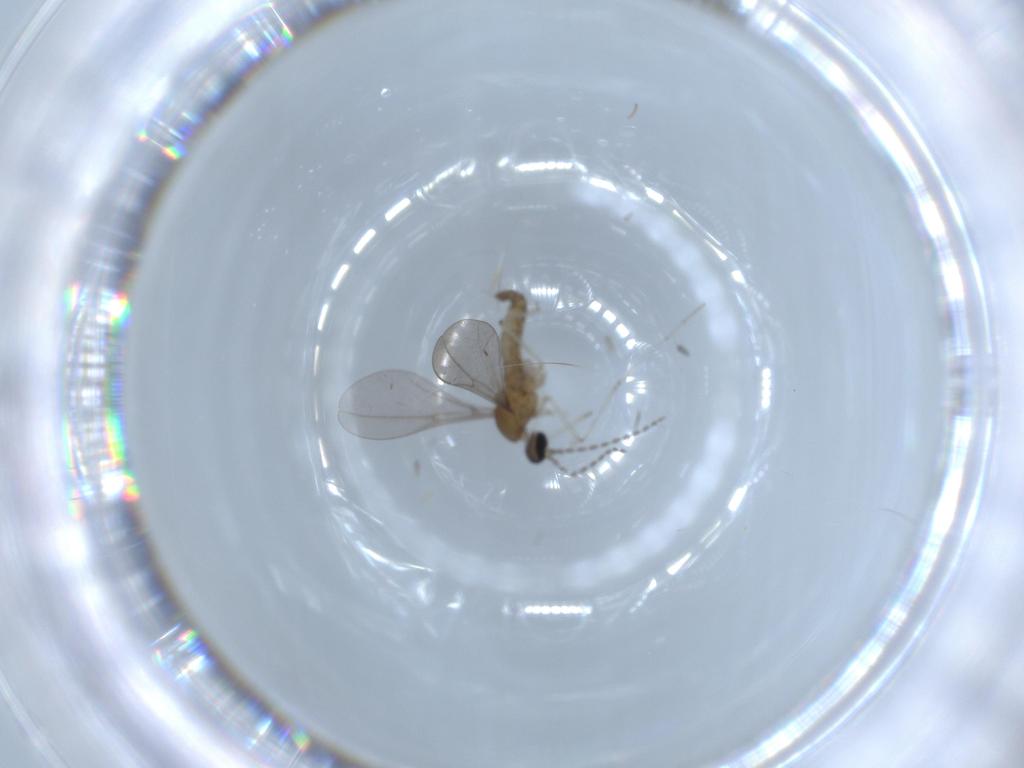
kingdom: Animalia
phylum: Arthropoda
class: Insecta
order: Diptera
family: Cecidomyiidae
